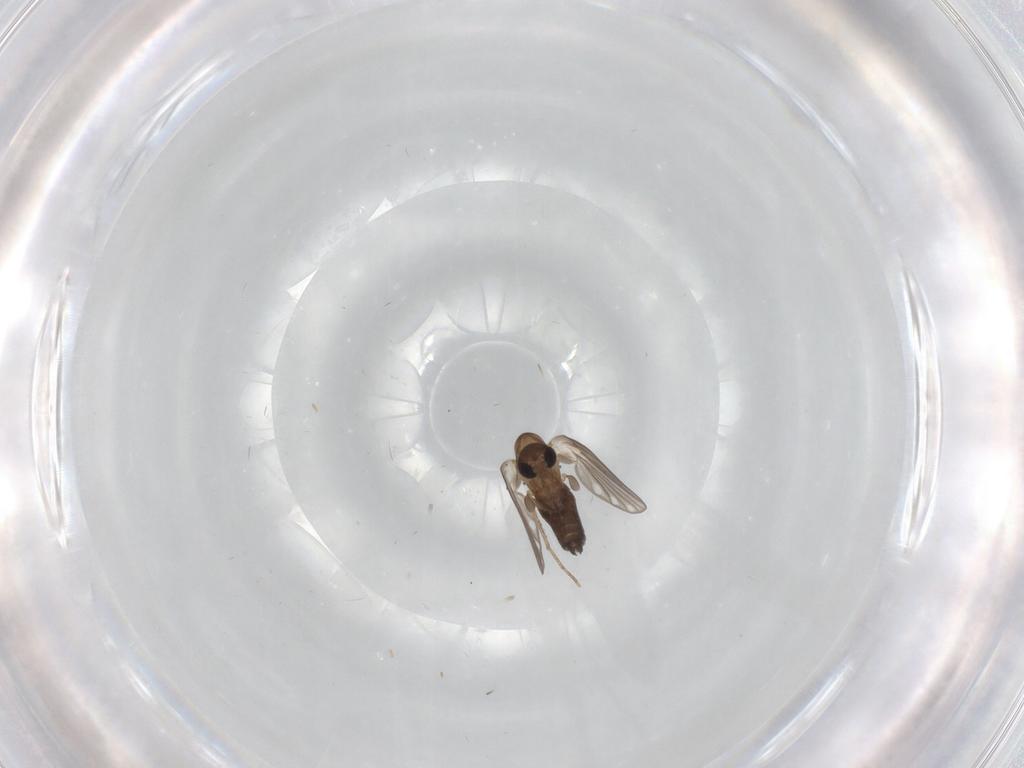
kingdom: Animalia
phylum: Arthropoda
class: Insecta
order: Diptera
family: Psychodidae
